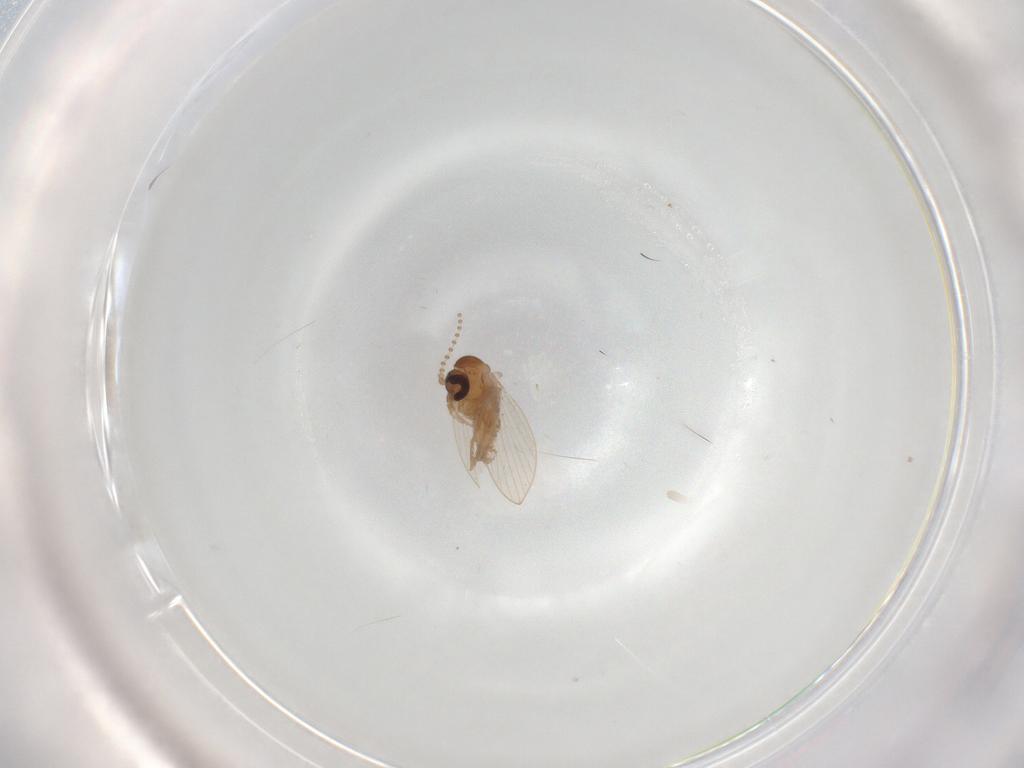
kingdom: Animalia
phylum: Arthropoda
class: Insecta
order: Diptera
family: Psychodidae
